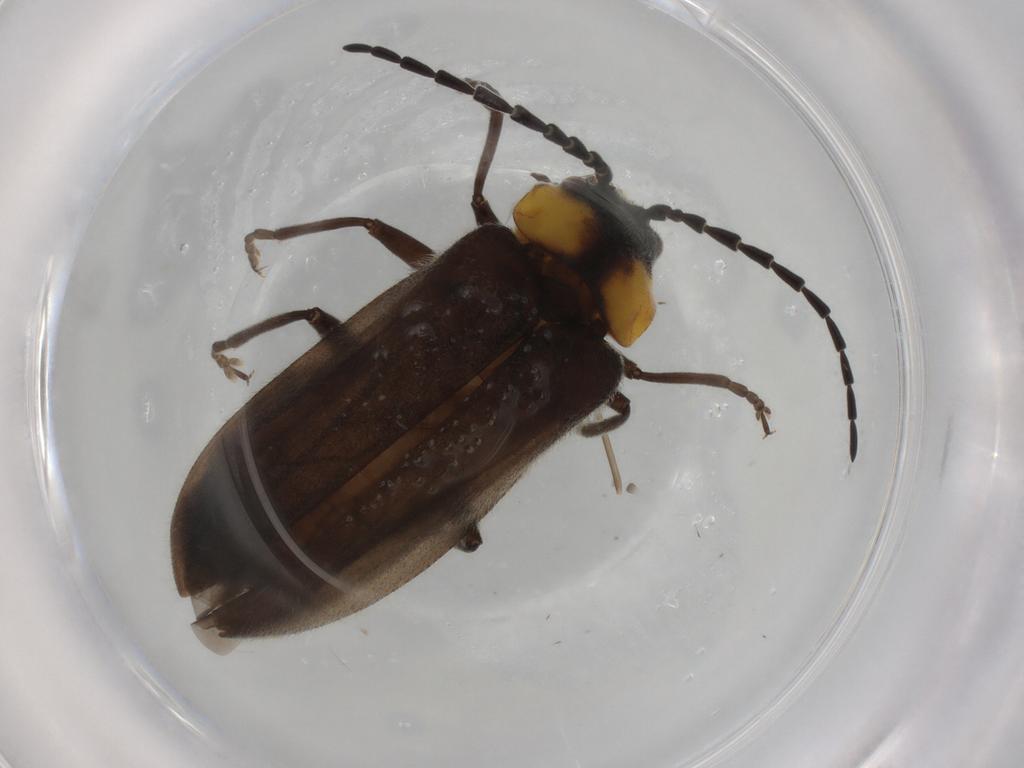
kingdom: Animalia
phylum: Arthropoda
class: Insecta
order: Coleoptera
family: Cantharidae
